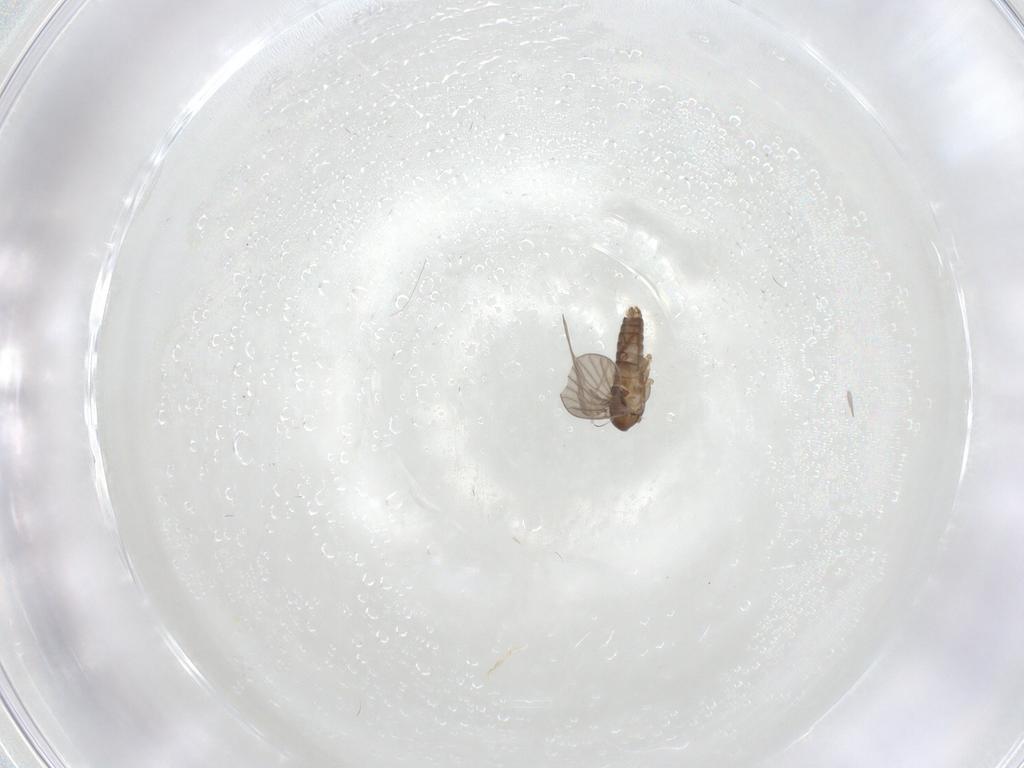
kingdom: Animalia
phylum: Arthropoda
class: Insecta
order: Diptera
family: Psychodidae
